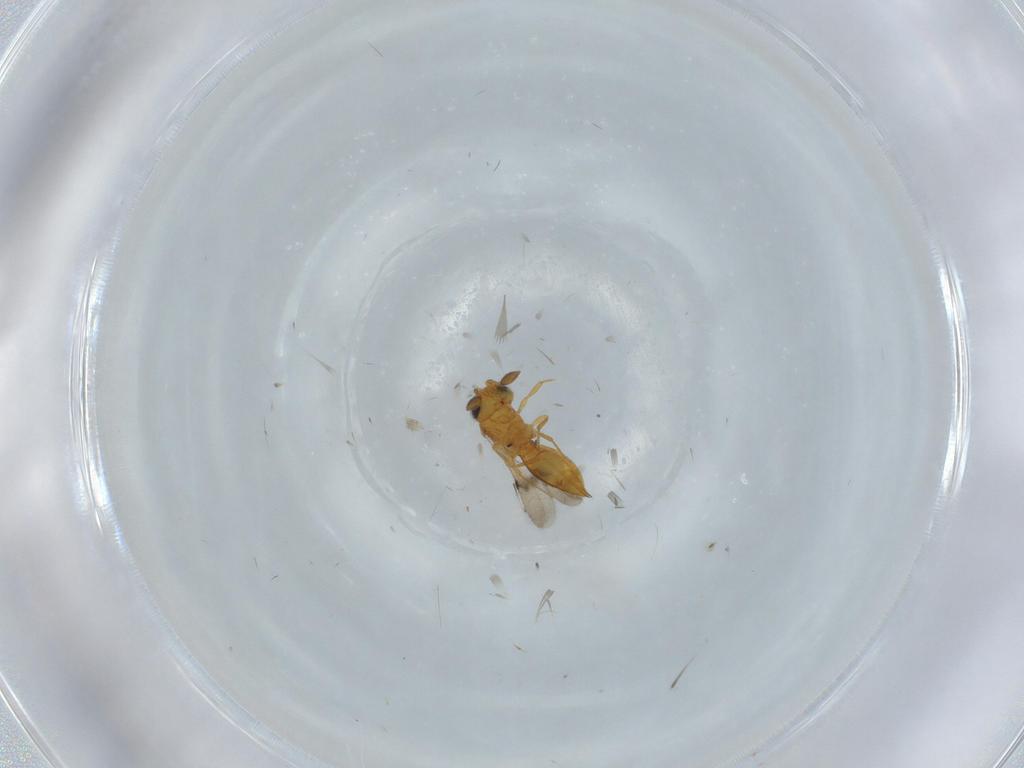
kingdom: Animalia
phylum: Arthropoda
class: Insecta
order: Hymenoptera
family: Scelionidae
